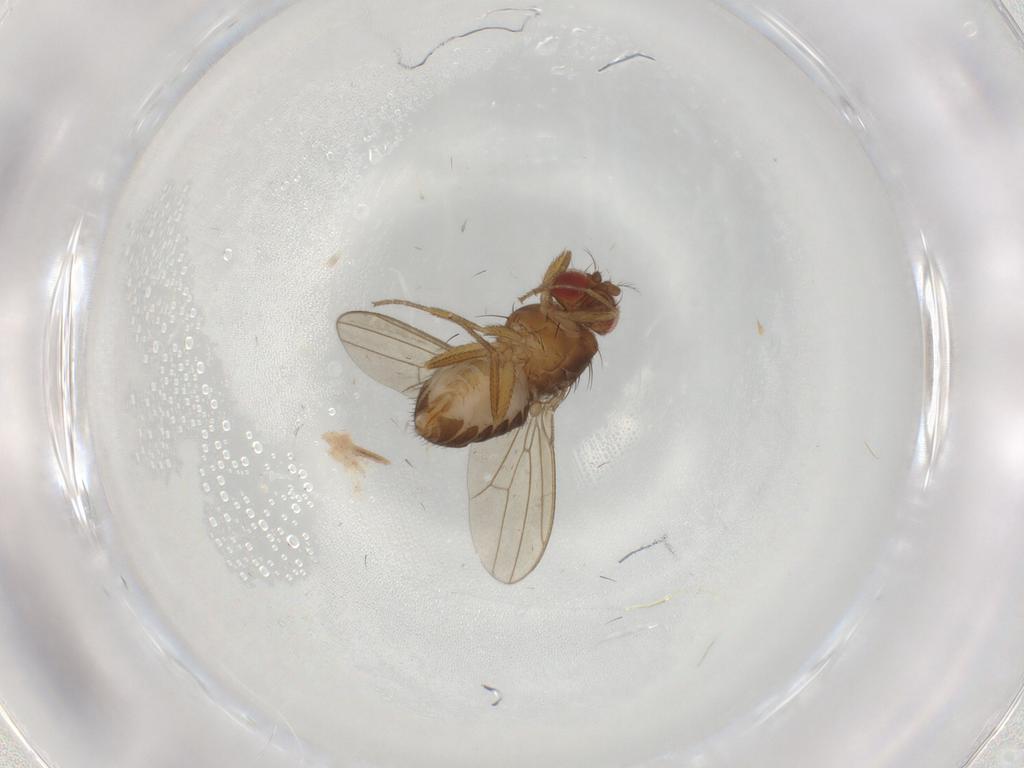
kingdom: Animalia
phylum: Arthropoda
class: Insecta
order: Diptera
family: Drosophilidae
